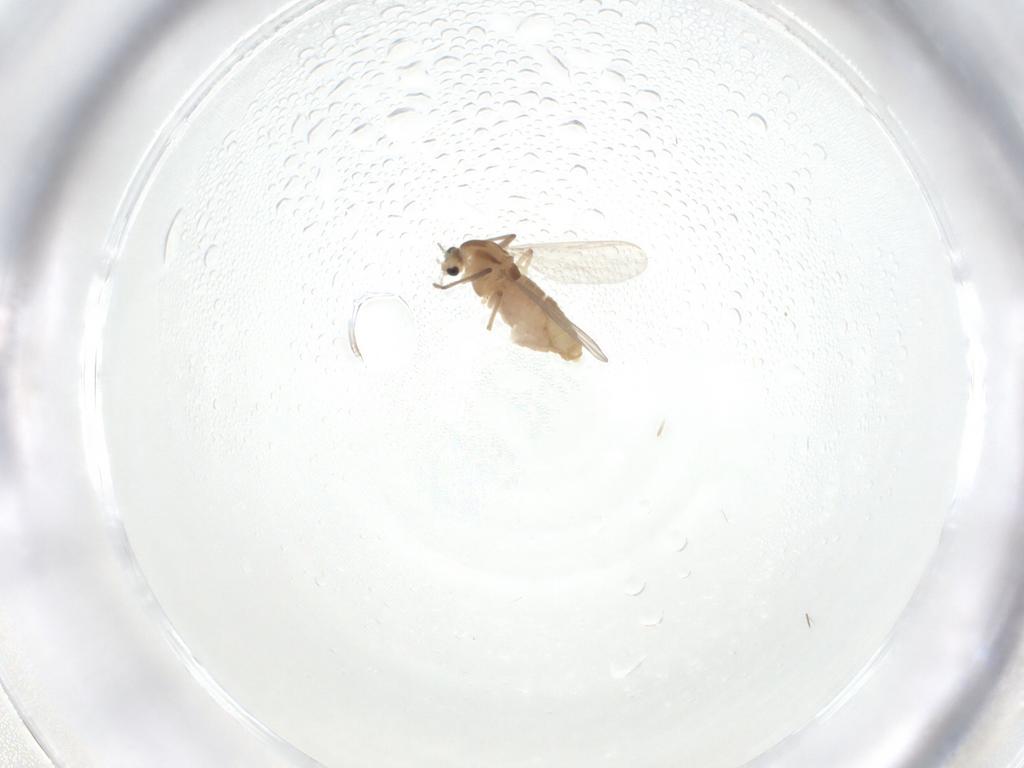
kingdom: Animalia
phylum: Arthropoda
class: Insecta
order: Diptera
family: Chironomidae
